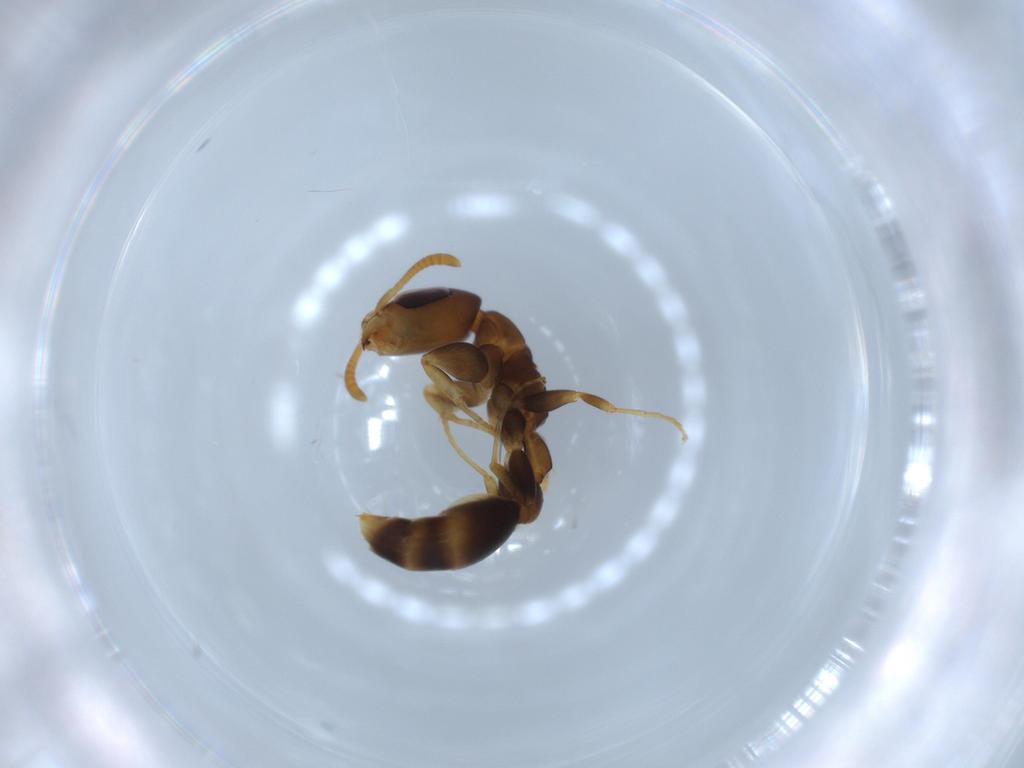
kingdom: Animalia
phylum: Arthropoda
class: Insecta
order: Hymenoptera
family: Formicidae
